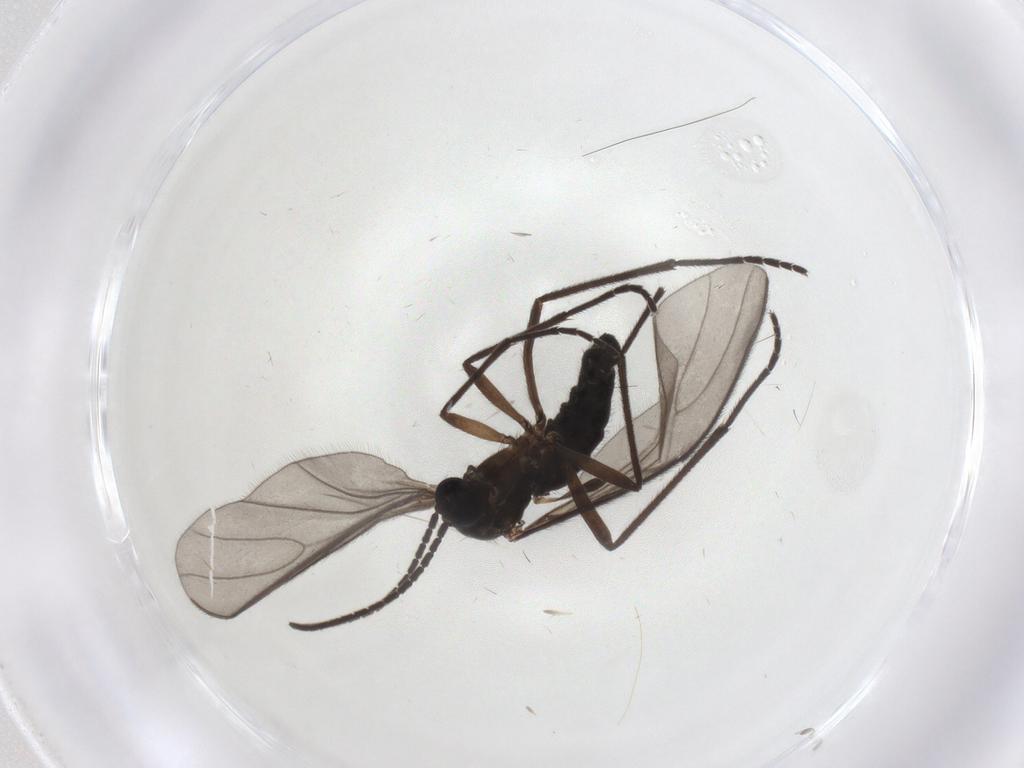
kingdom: Animalia
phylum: Arthropoda
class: Insecta
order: Diptera
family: Sciaridae
